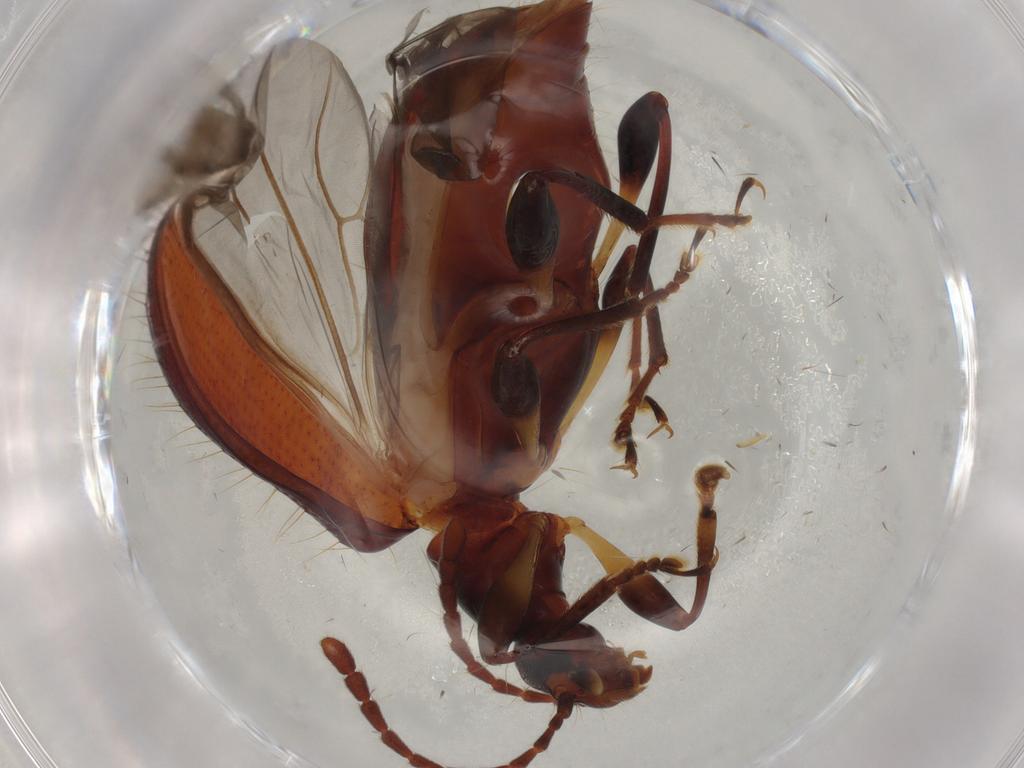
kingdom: Animalia
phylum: Arthropoda
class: Insecta
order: Coleoptera
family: Tenebrionidae
